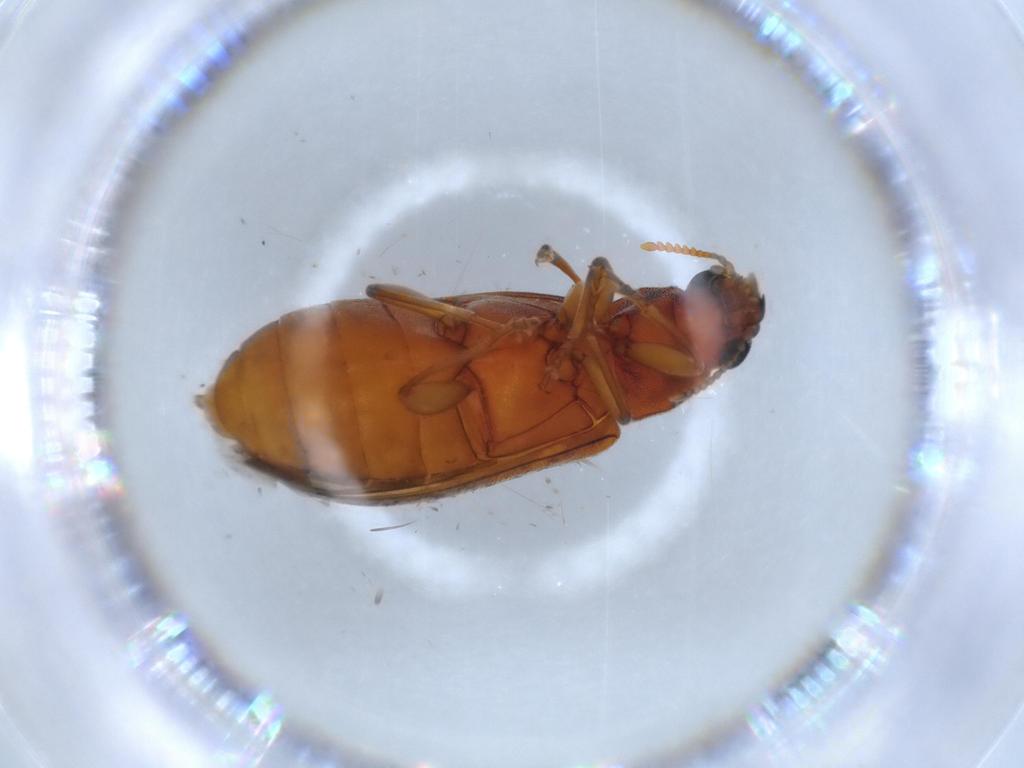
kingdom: Animalia
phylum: Arthropoda
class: Insecta
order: Coleoptera
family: Mycteridae
